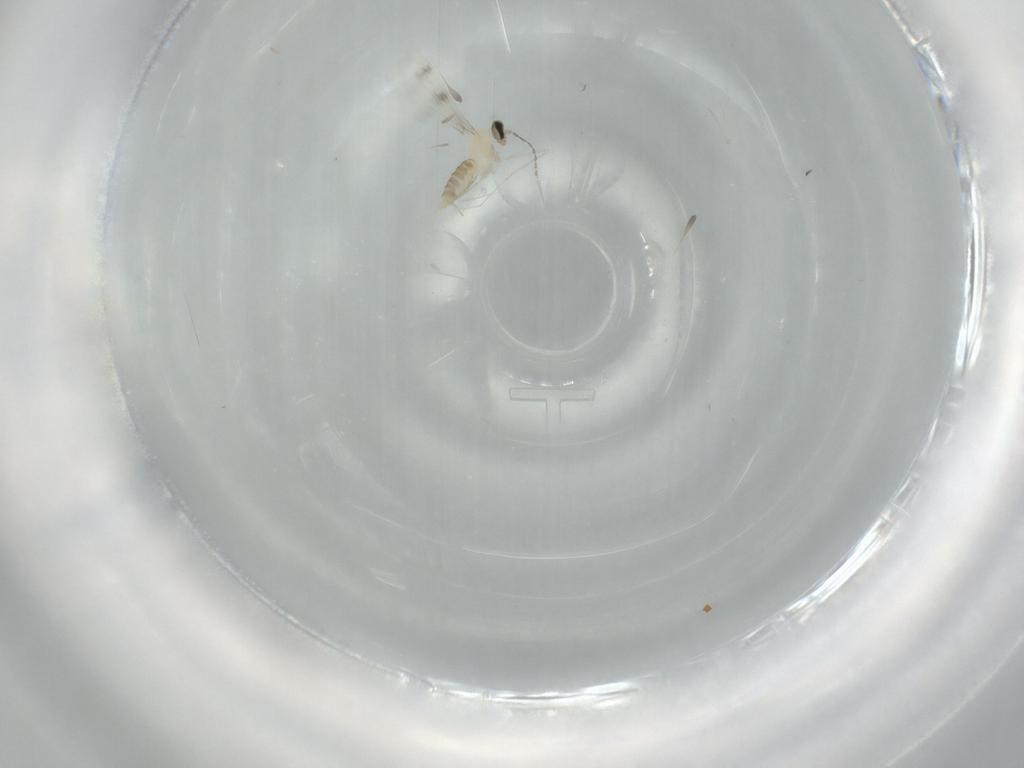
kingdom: Animalia
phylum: Arthropoda
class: Insecta
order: Diptera
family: Cecidomyiidae
